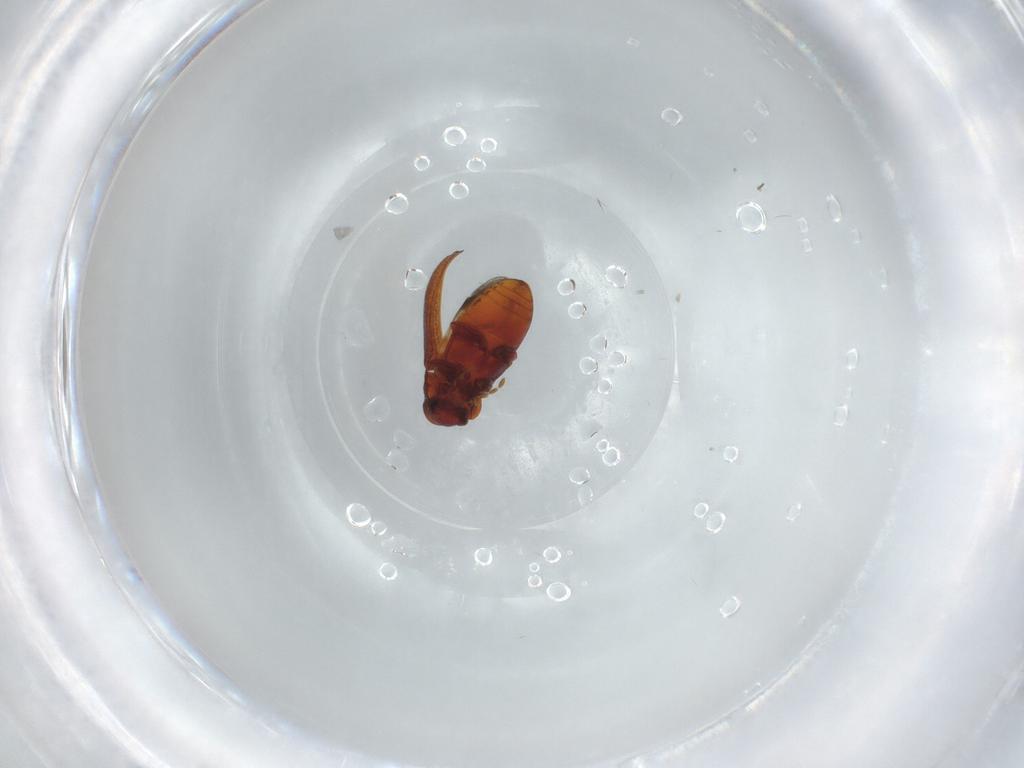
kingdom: Animalia
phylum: Arthropoda
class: Insecta
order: Coleoptera
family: Ptinidae
